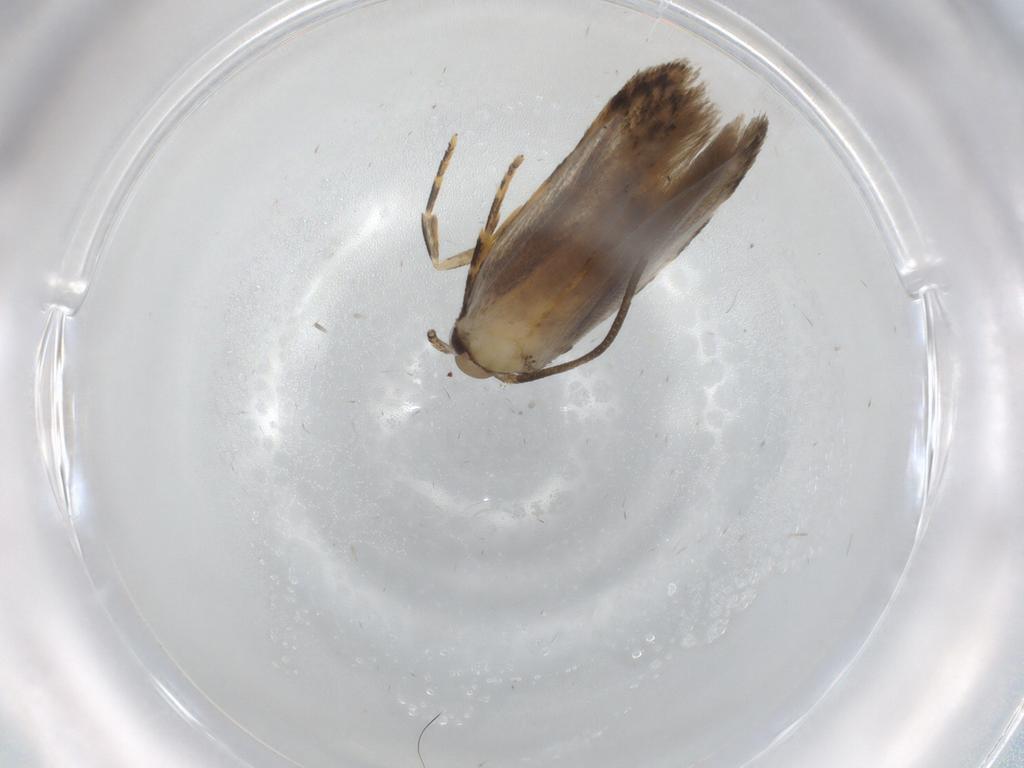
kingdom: Animalia
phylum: Arthropoda
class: Insecta
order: Lepidoptera
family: Autostichidae
